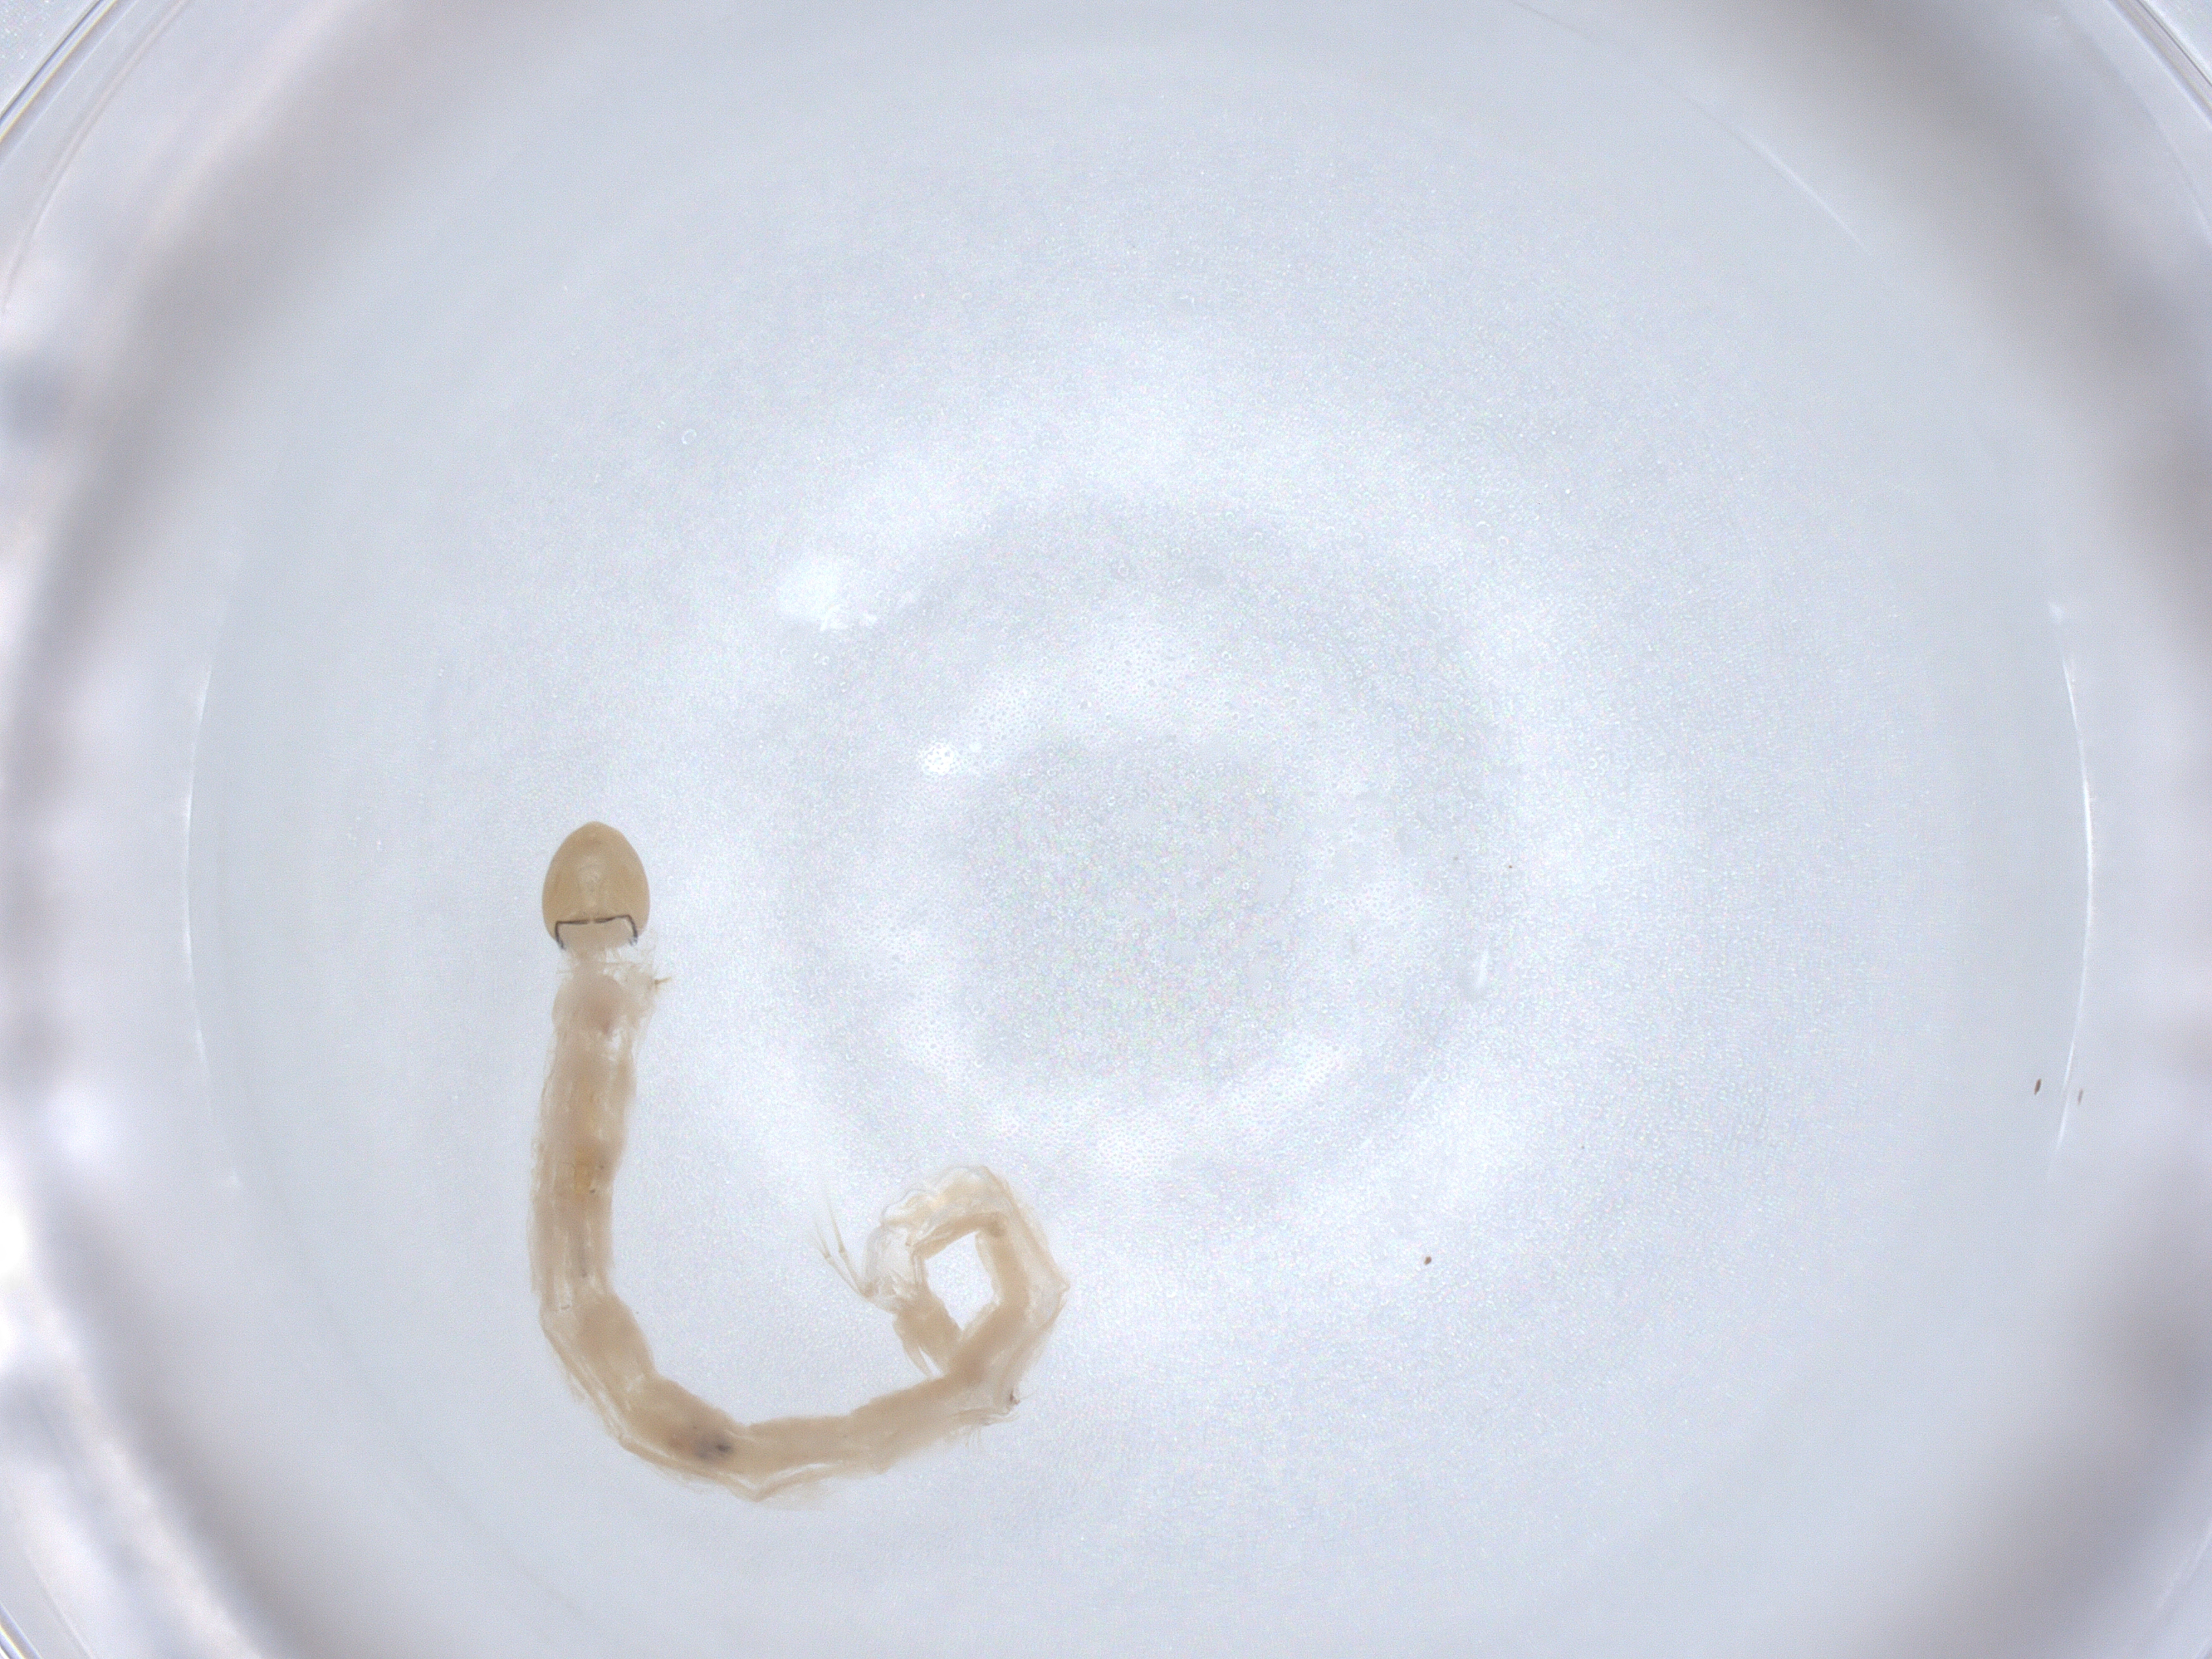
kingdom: Animalia
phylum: Arthropoda
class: Insecta
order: Diptera
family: Chironomidae
